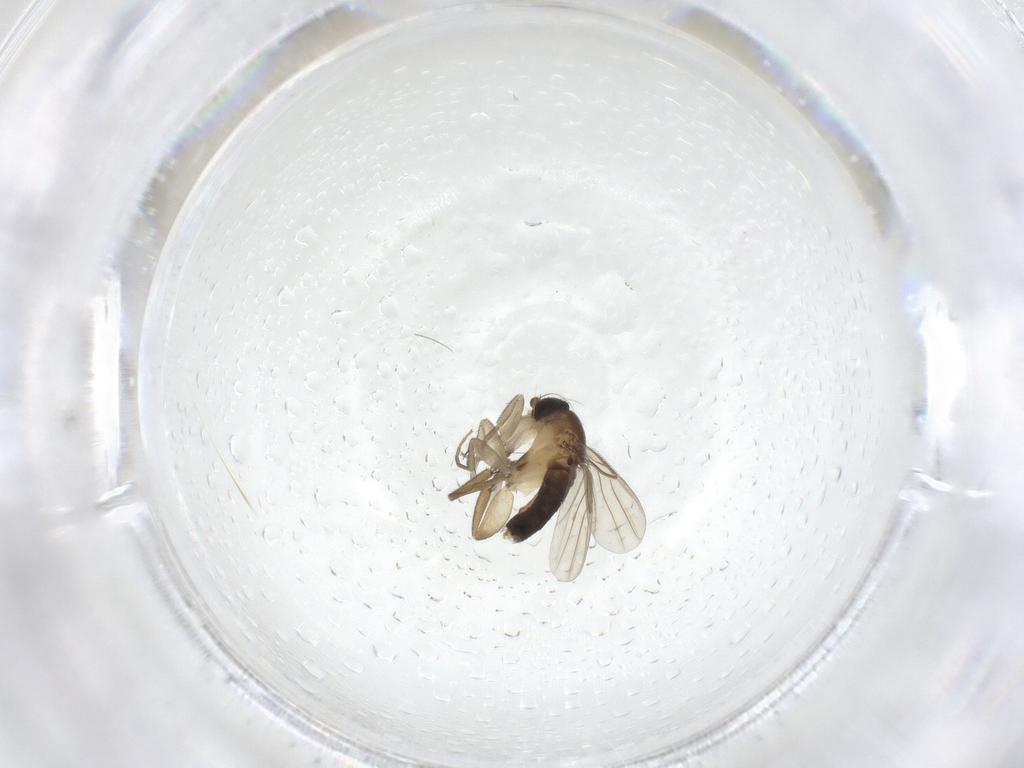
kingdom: Animalia
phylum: Arthropoda
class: Insecta
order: Diptera
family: Phoridae
